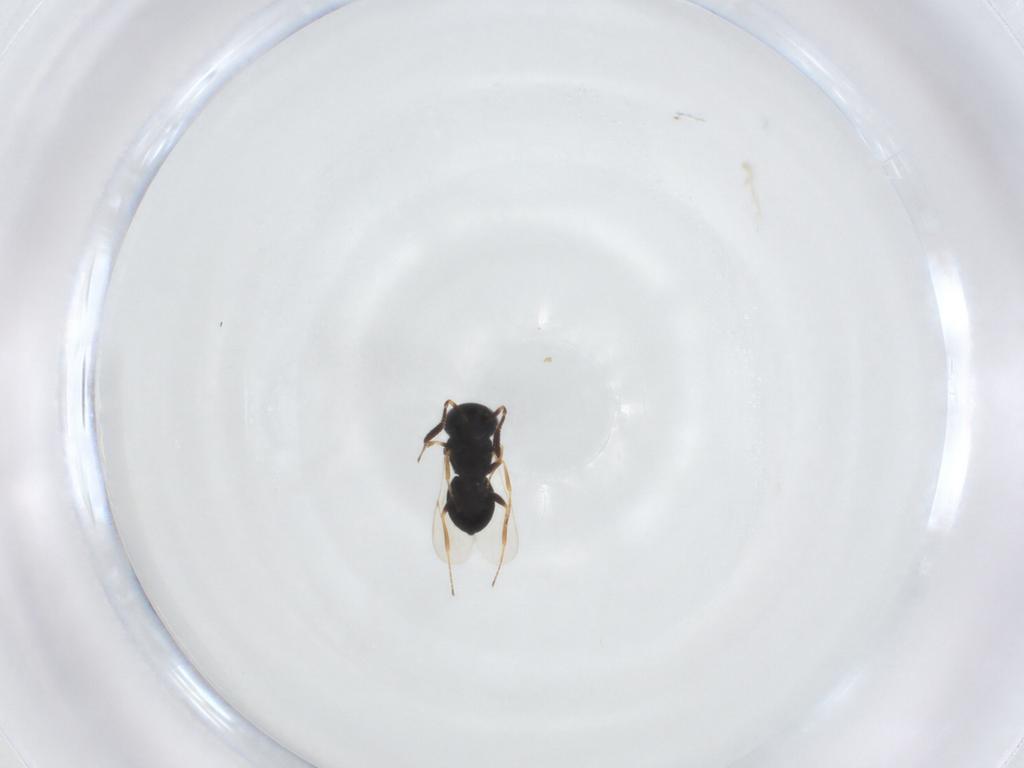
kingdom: Animalia
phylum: Arthropoda
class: Insecta
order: Hymenoptera
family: Scelionidae
